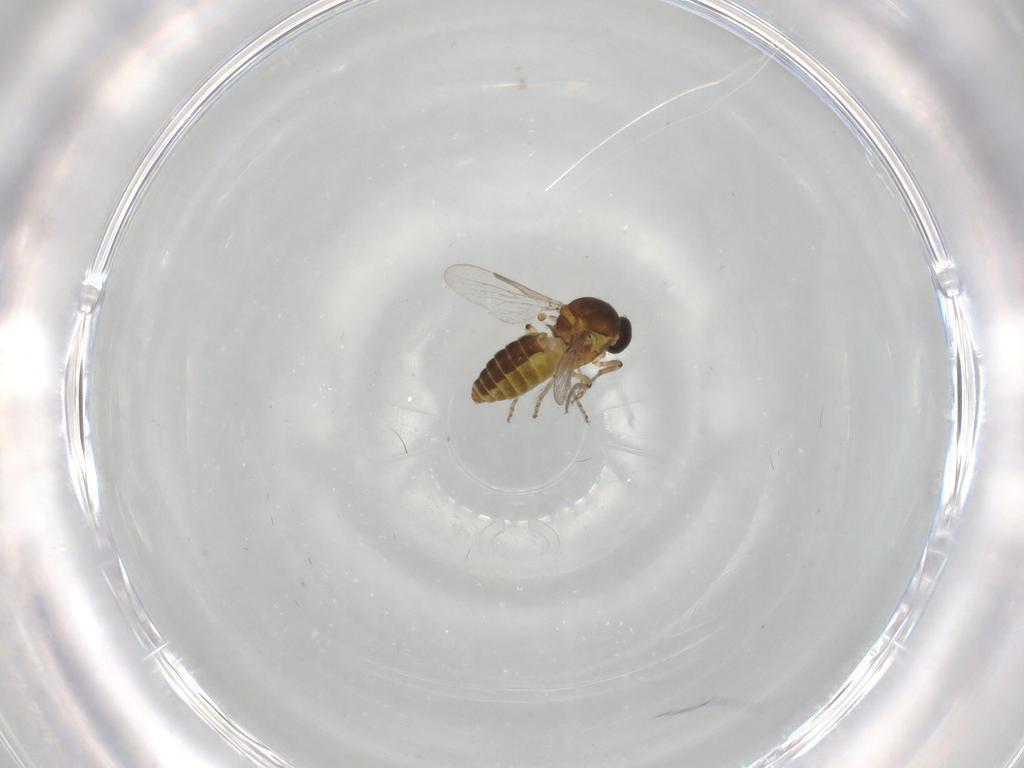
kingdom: Animalia
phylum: Arthropoda
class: Insecta
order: Diptera
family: Ceratopogonidae
